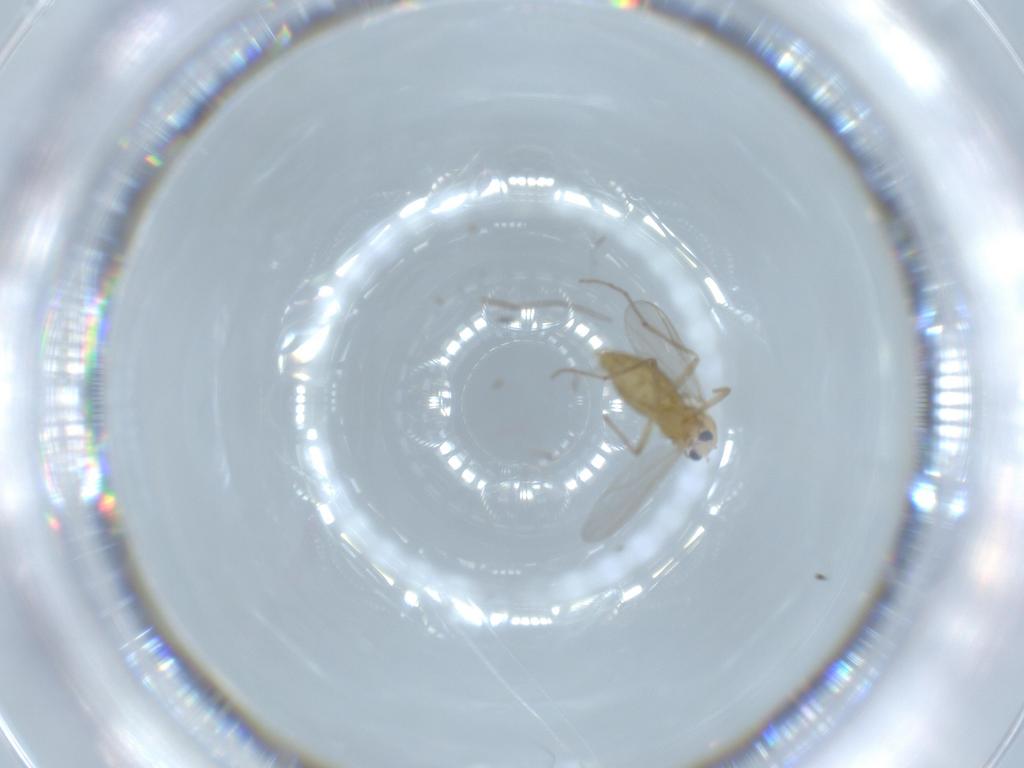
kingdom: Animalia
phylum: Arthropoda
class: Insecta
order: Diptera
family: Chironomidae
